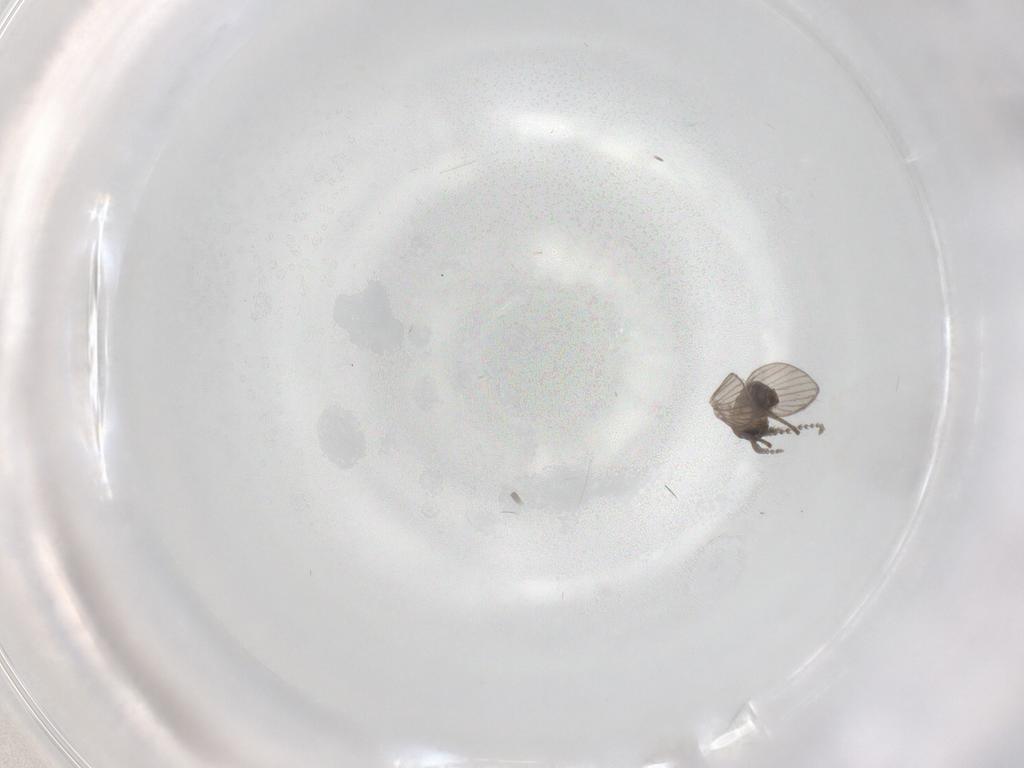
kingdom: Animalia
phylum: Arthropoda
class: Insecta
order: Diptera
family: Psychodidae
